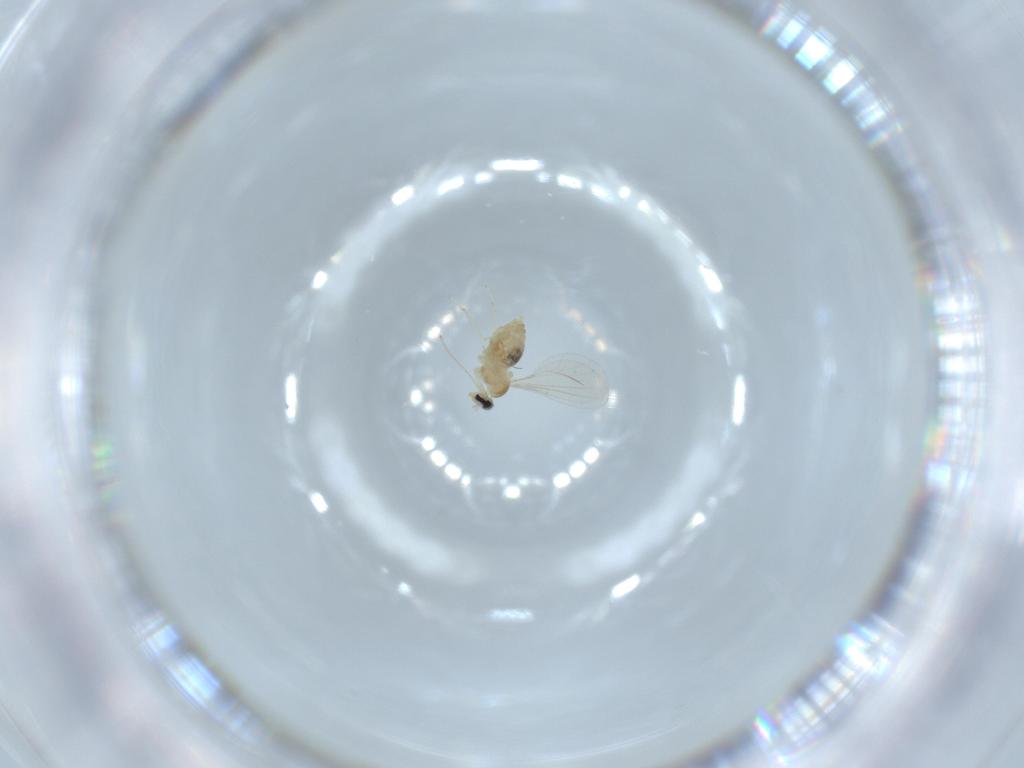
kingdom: Animalia
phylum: Arthropoda
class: Insecta
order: Diptera
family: Cecidomyiidae
